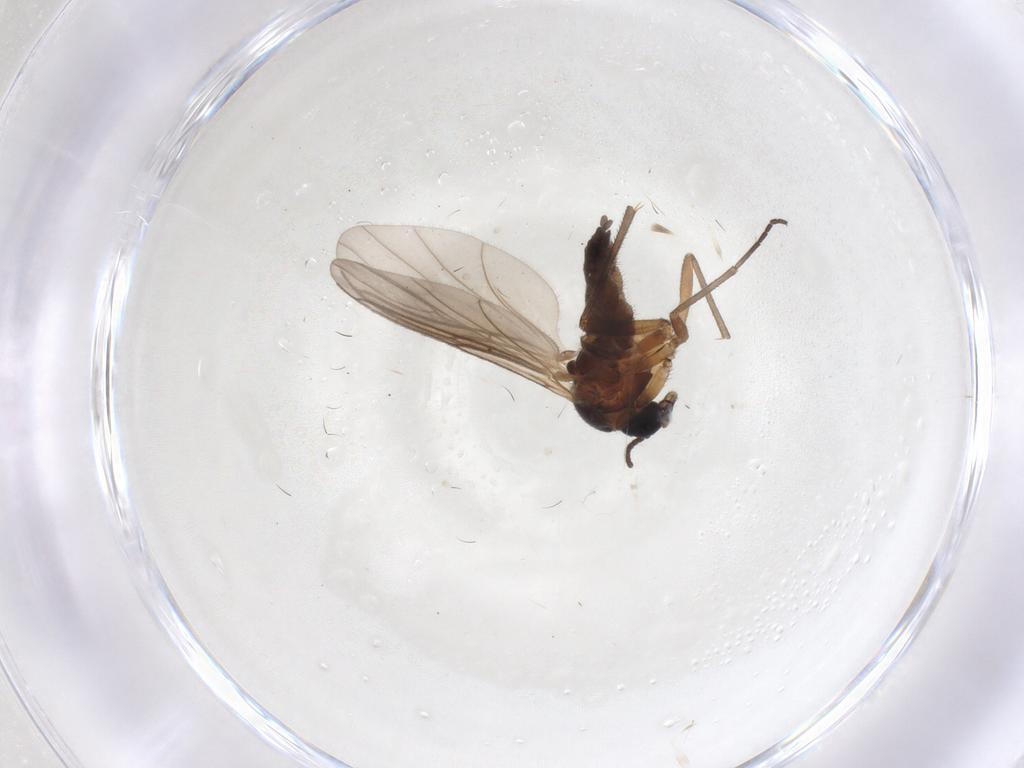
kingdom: Animalia
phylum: Arthropoda
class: Insecta
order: Diptera
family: Sciaridae
